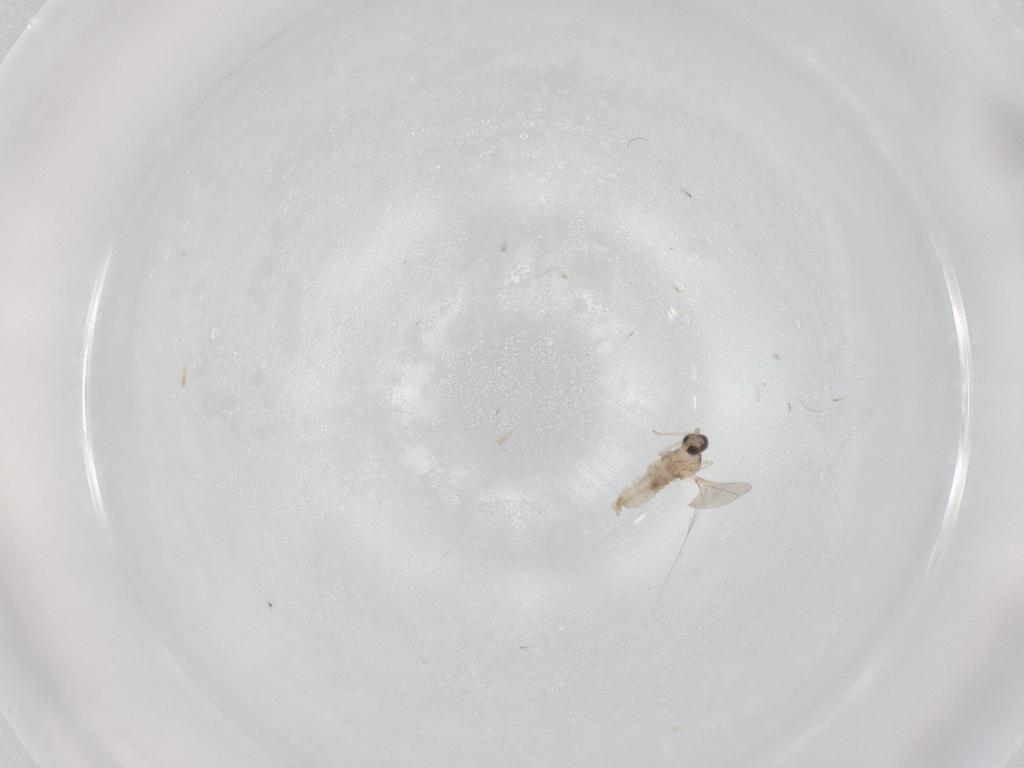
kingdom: Animalia
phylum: Arthropoda
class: Insecta
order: Diptera
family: Cecidomyiidae
